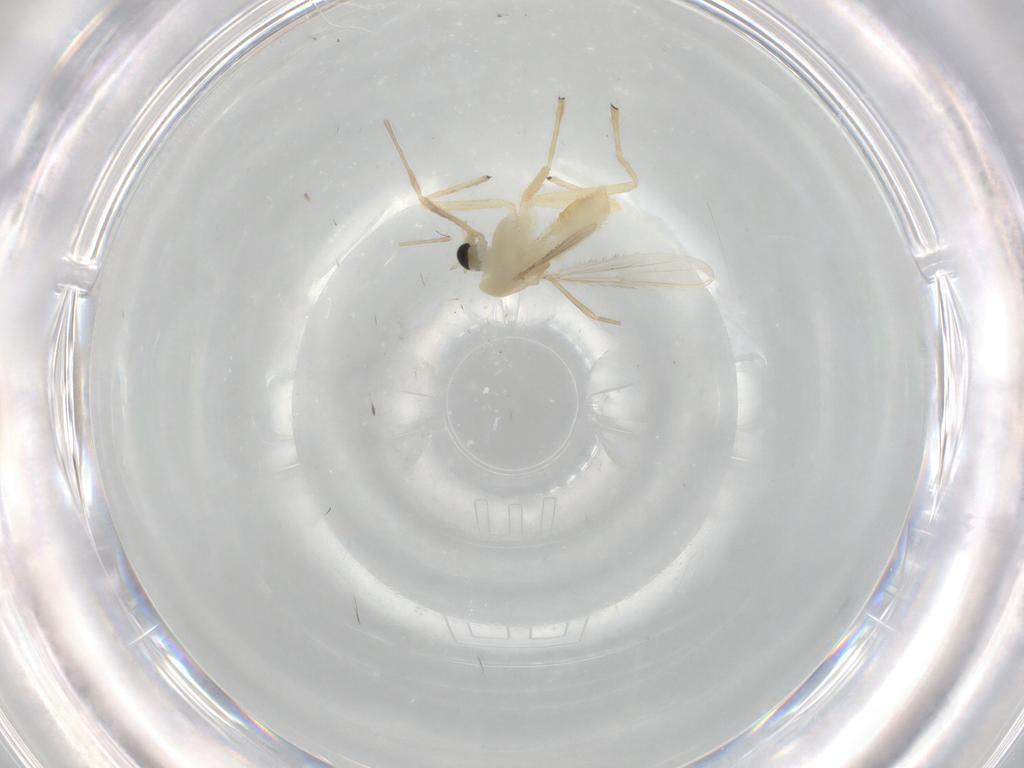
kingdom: Animalia
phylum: Arthropoda
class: Insecta
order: Diptera
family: Chironomidae
